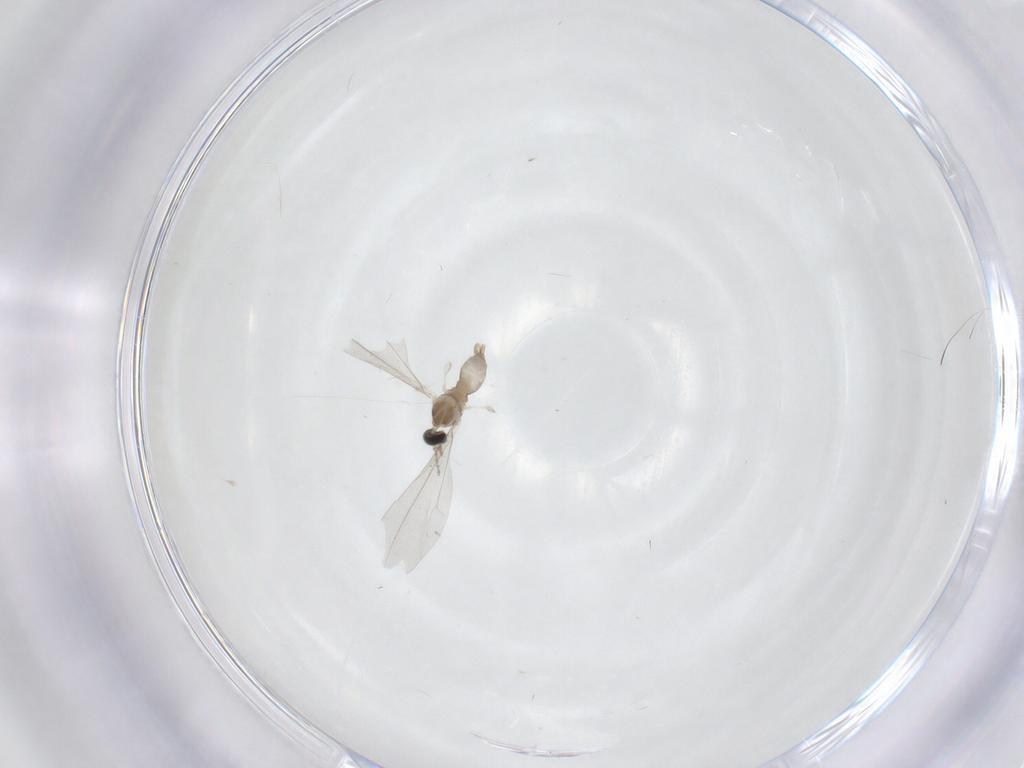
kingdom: Animalia
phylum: Arthropoda
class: Insecta
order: Diptera
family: Cecidomyiidae
